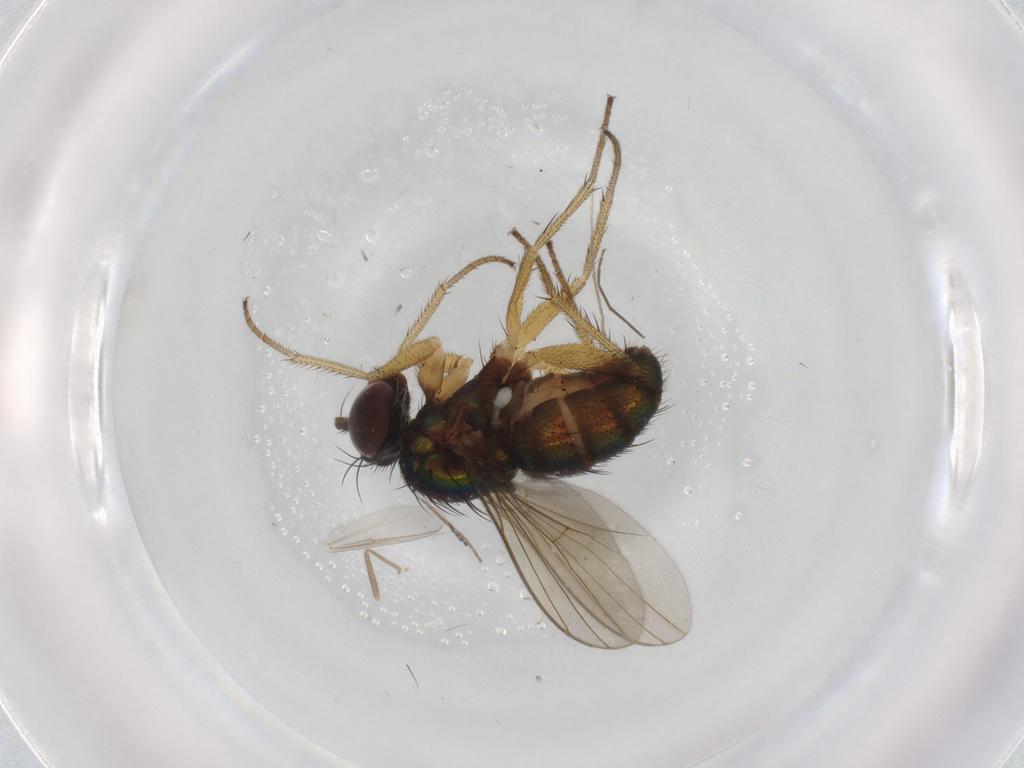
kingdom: Animalia
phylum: Arthropoda
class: Insecta
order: Diptera
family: Dolichopodidae
